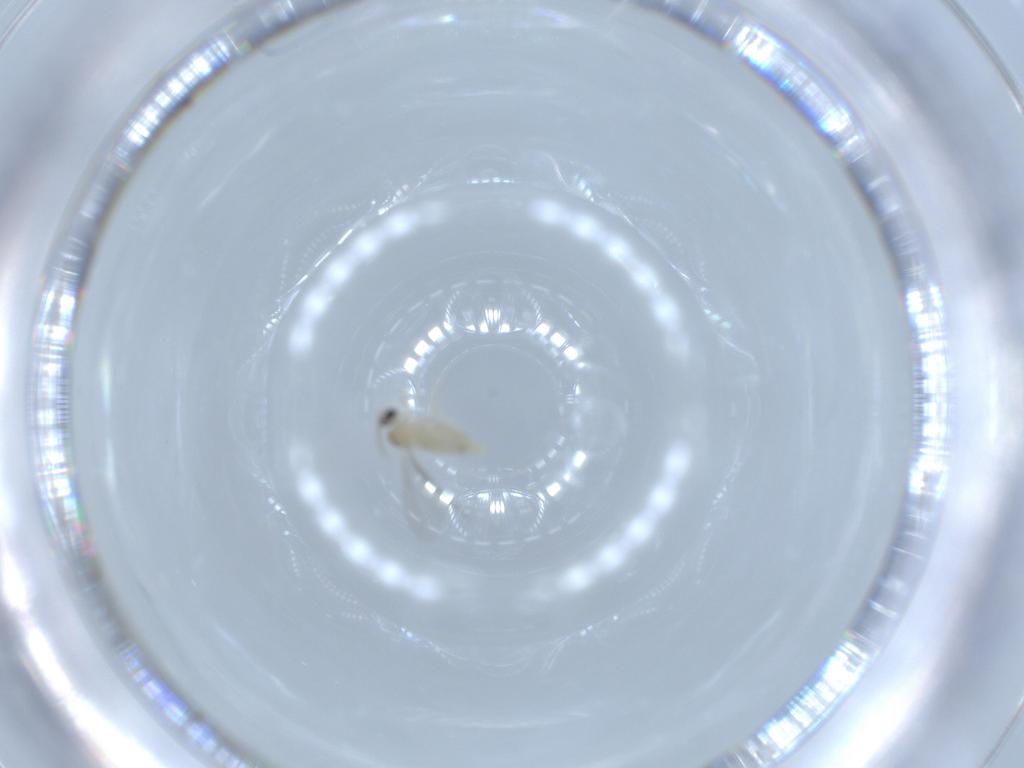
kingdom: Animalia
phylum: Arthropoda
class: Insecta
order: Diptera
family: Cecidomyiidae
